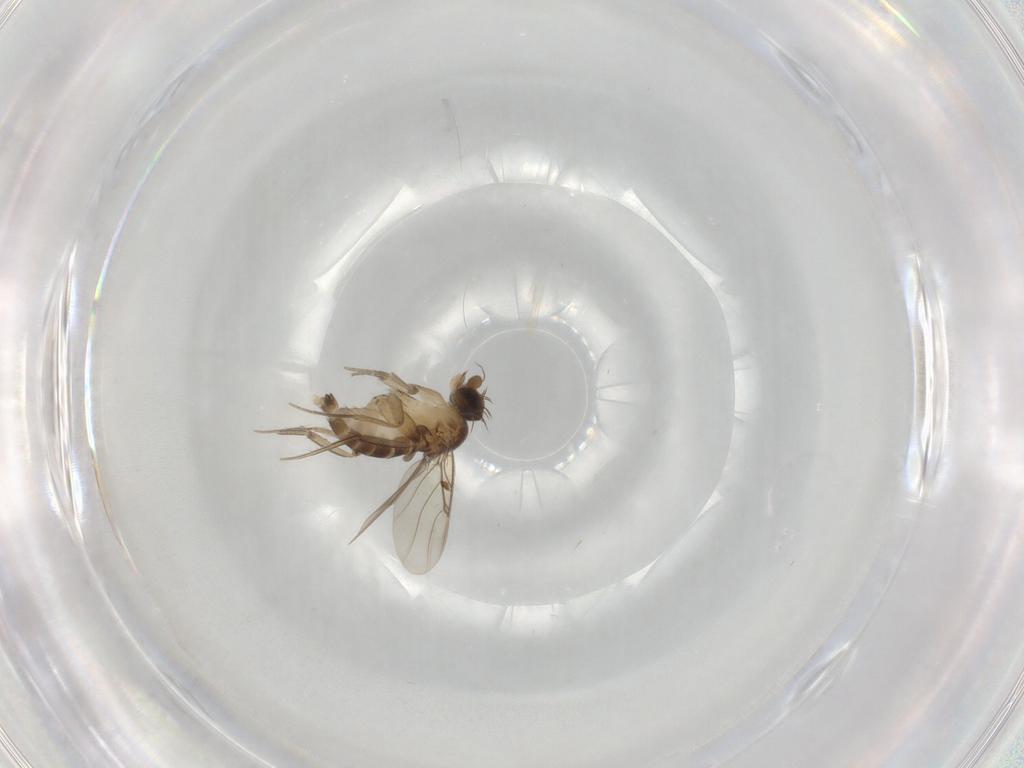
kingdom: Animalia
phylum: Arthropoda
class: Insecta
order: Diptera
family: Phoridae
